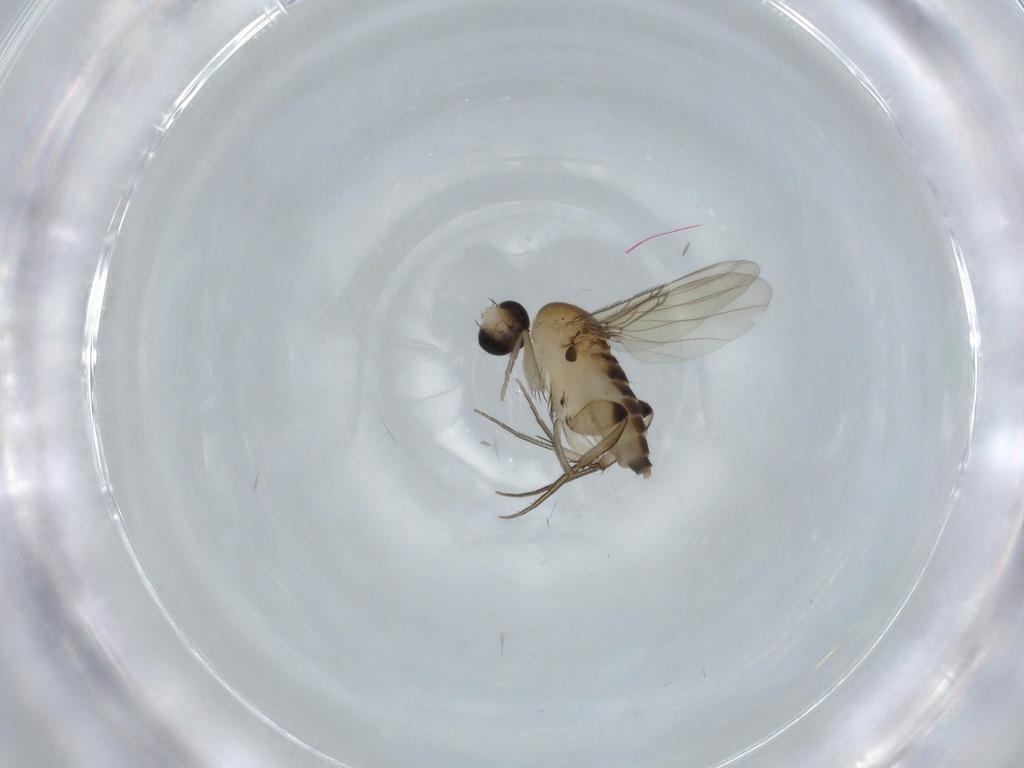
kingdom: Animalia
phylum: Arthropoda
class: Insecta
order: Diptera
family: Phoridae
